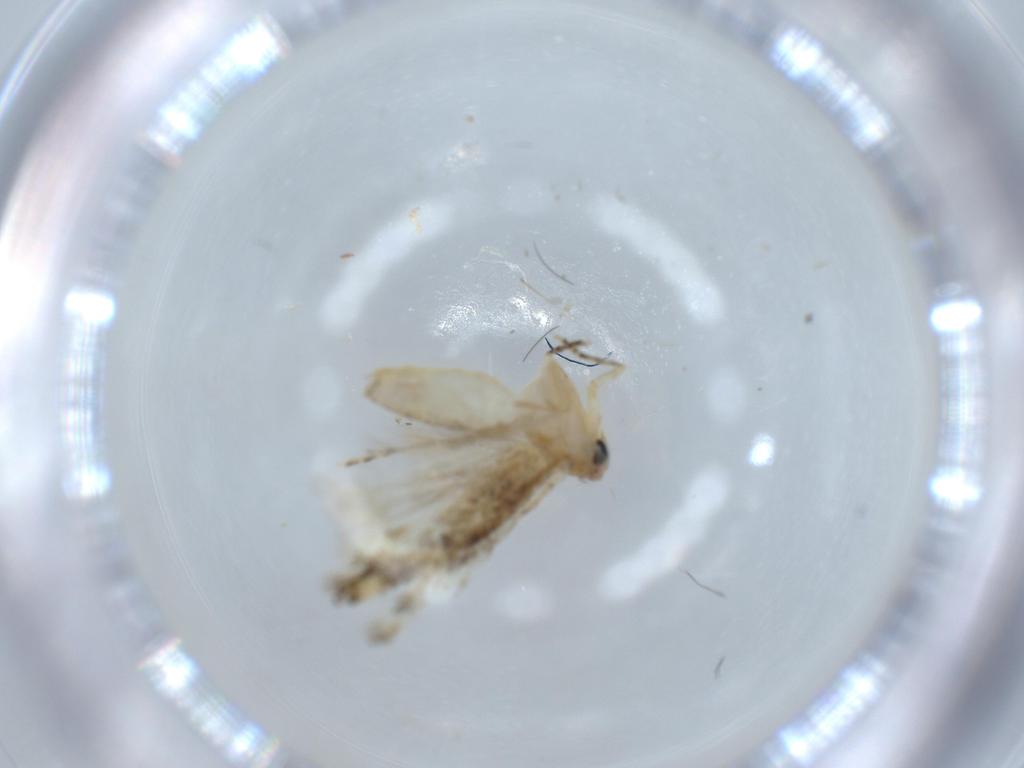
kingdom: Animalia
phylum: Arthropoda
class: Insecta
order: Lepidoptera
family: Bucculatricidae
